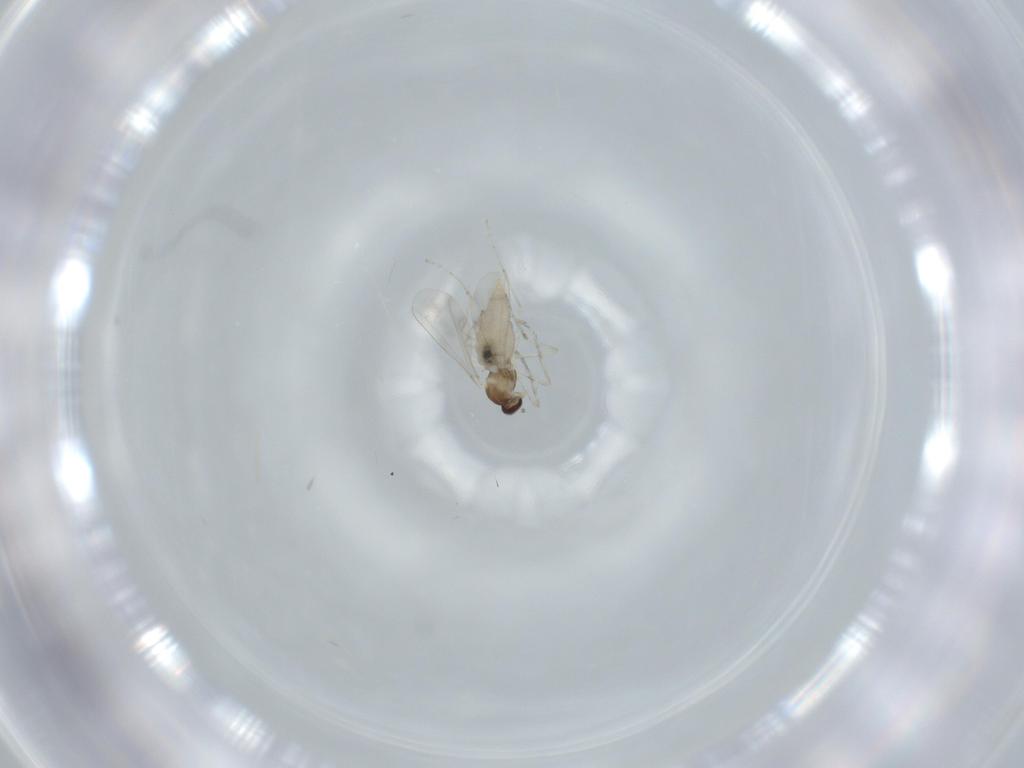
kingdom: Animalia
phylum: Arthropoda
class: Insecta
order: Diptera
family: Cecidomyiidae
